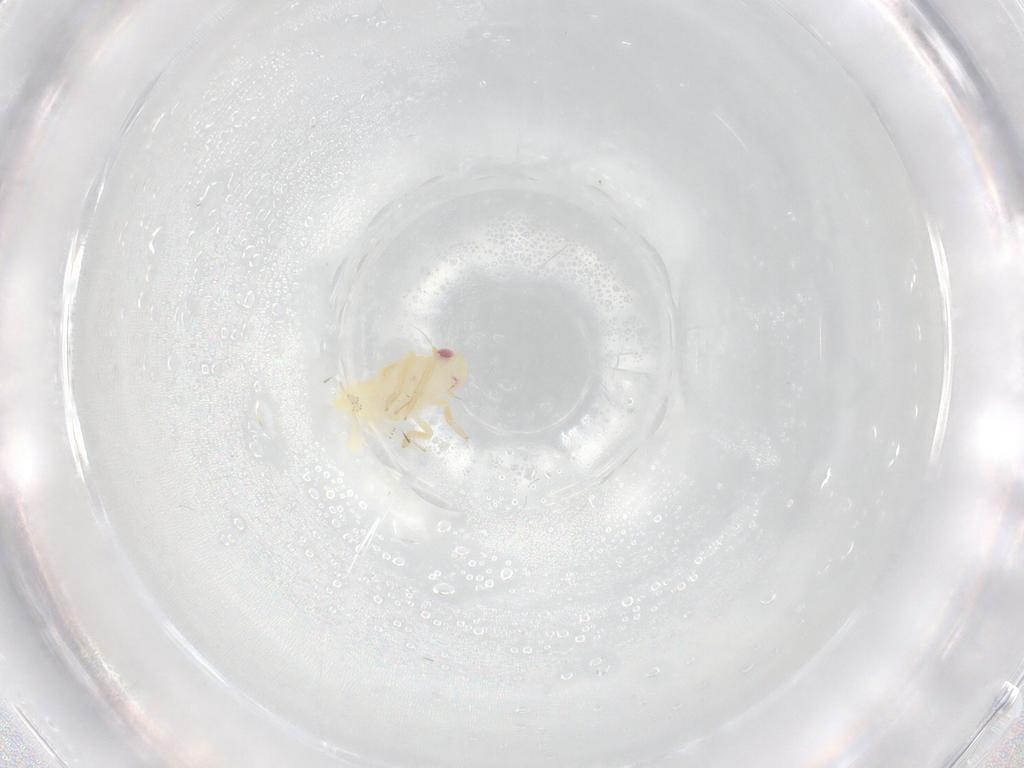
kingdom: Animalia
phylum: Arthropoda
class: Insecta
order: Hemiptera
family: Tropiduchidae
